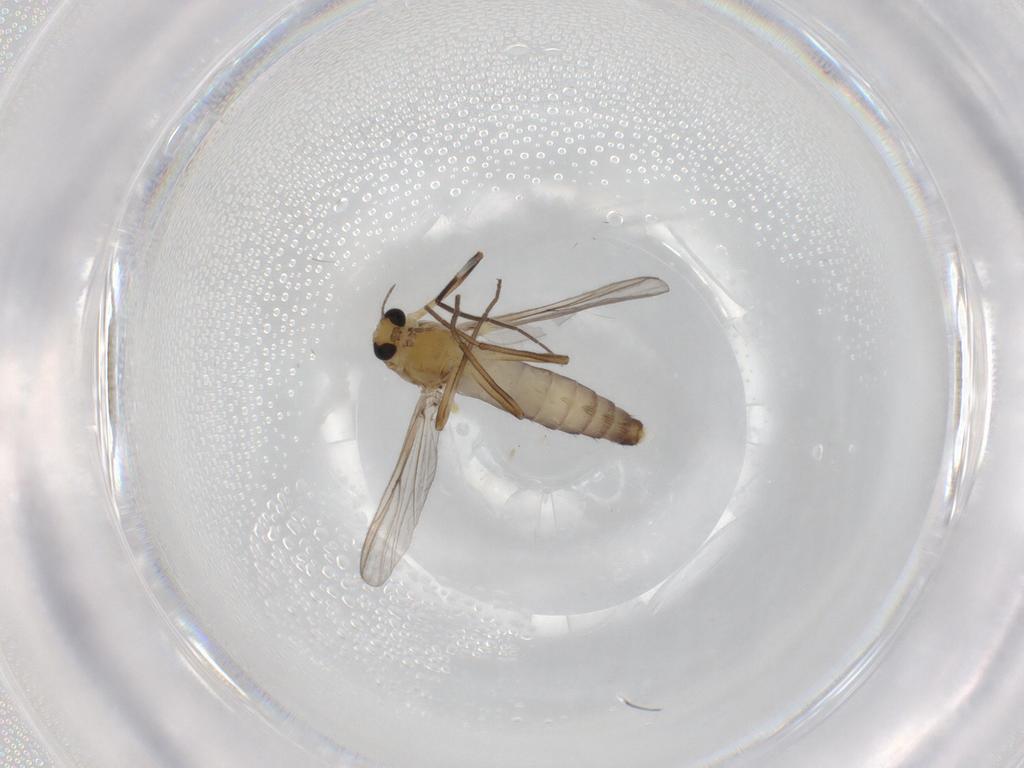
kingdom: Animalia
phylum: Arthropoda
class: Insecta
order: Diptera
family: Chironomidae
